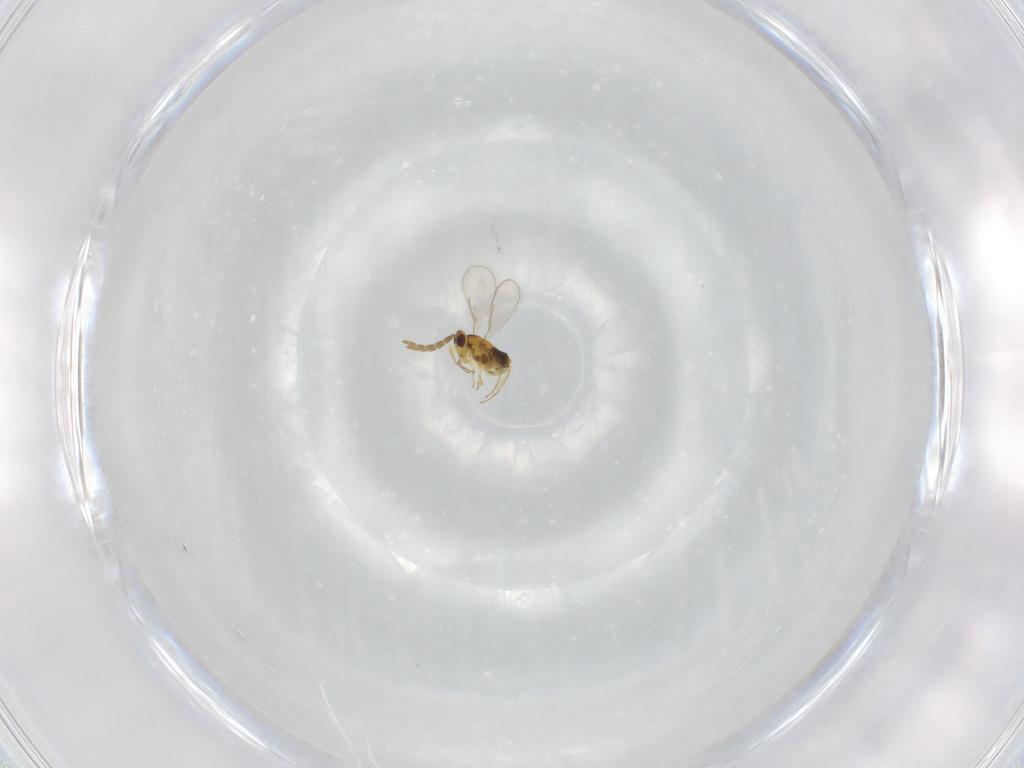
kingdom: Animalia
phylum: Arthropoda
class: Insecta
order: Hymenoptera
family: Aphelinidae
